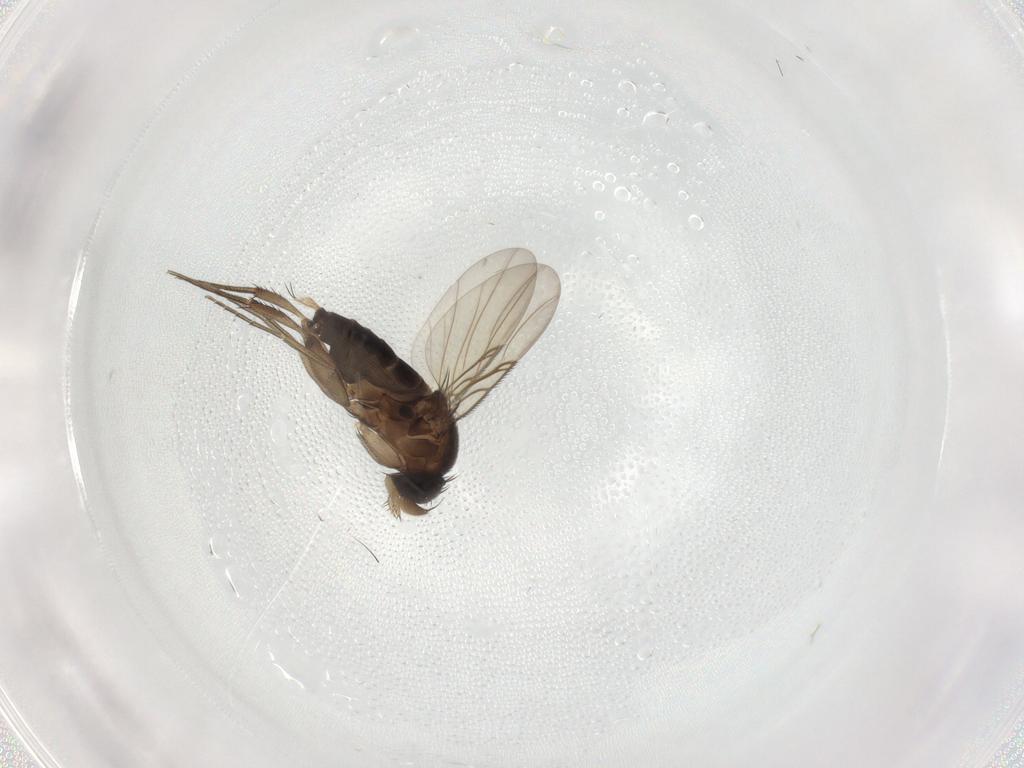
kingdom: Animalia
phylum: Arthropoda
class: Insecta
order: Diptera
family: Phoridae
